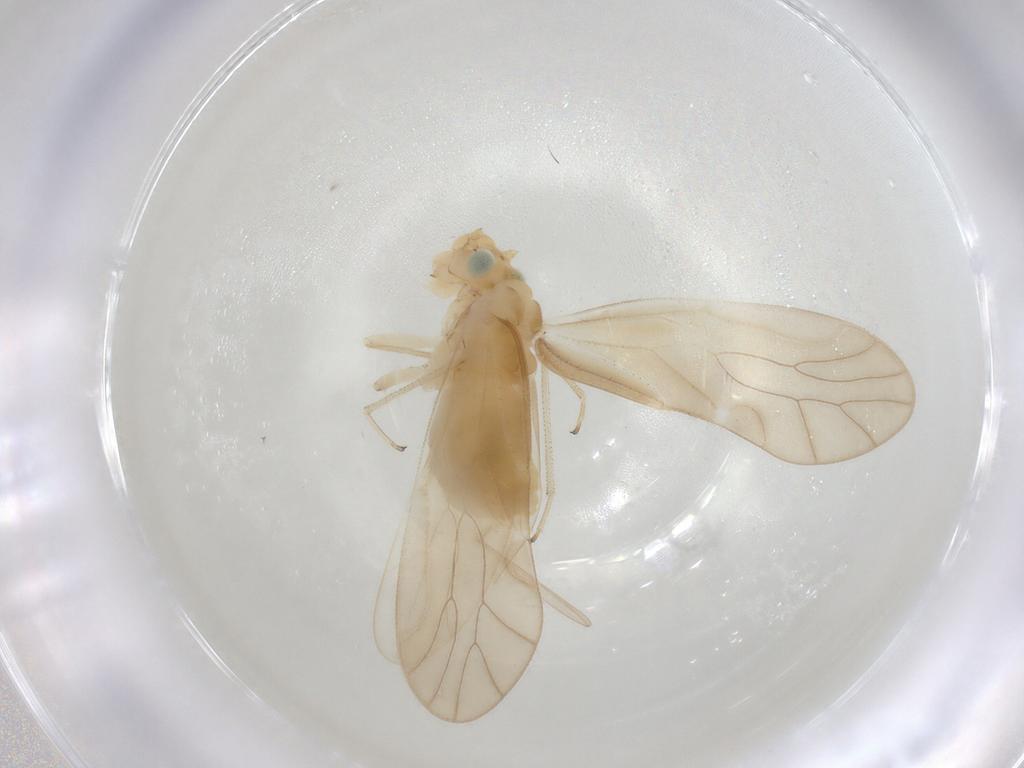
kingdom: Animalia
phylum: Arthropoda
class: Insecta
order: Psocodea
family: Caeciliusidae
